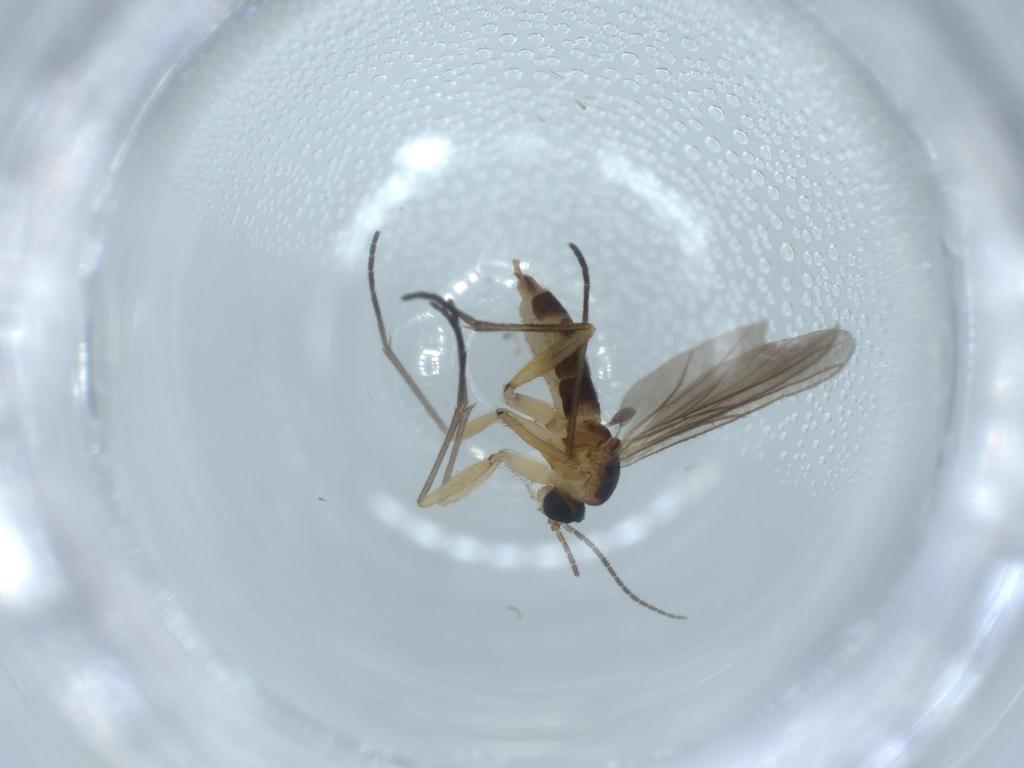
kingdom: Animalia
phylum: Arthropoda
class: Insecta
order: Diptera
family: Sciaridae
